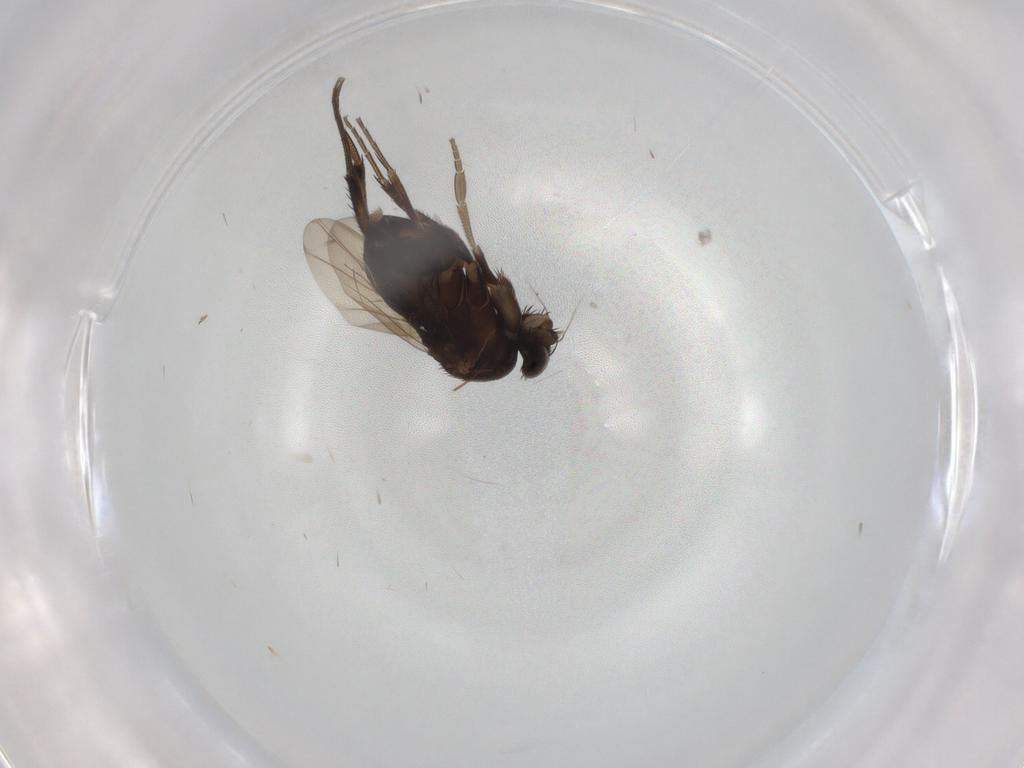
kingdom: Animalia
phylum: Arthropoda
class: Insecta
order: Diptera
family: Phoridae
